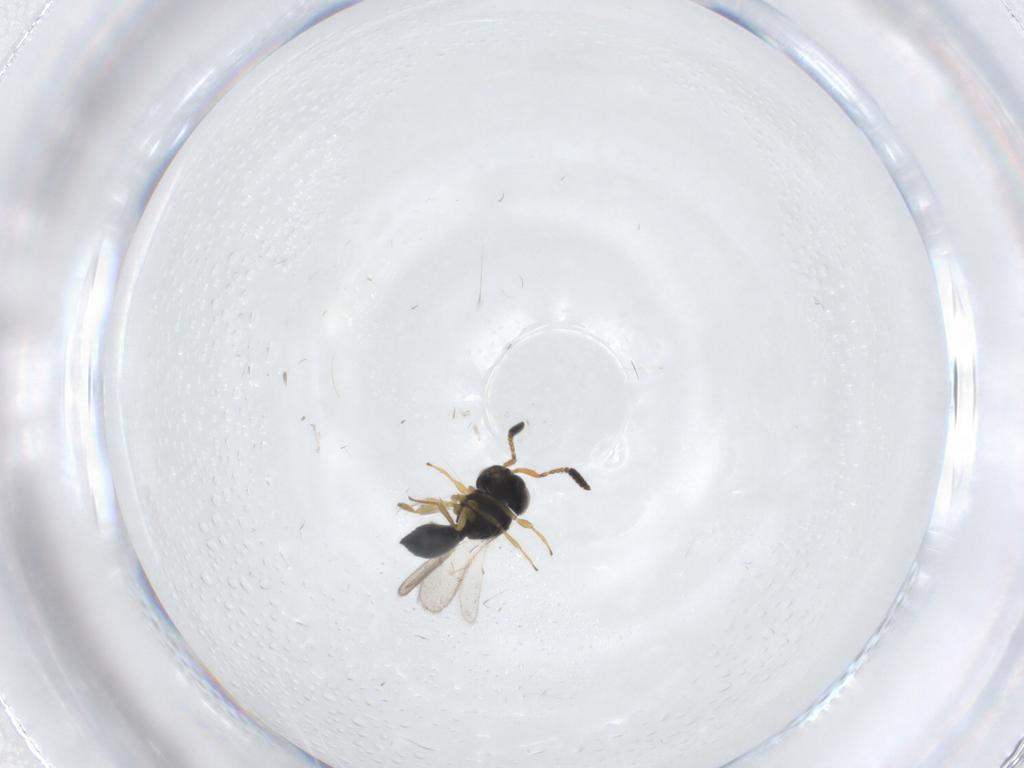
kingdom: Animalia
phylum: Arthropoda
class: Insecta
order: Hymenoptera
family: Scelionidae
